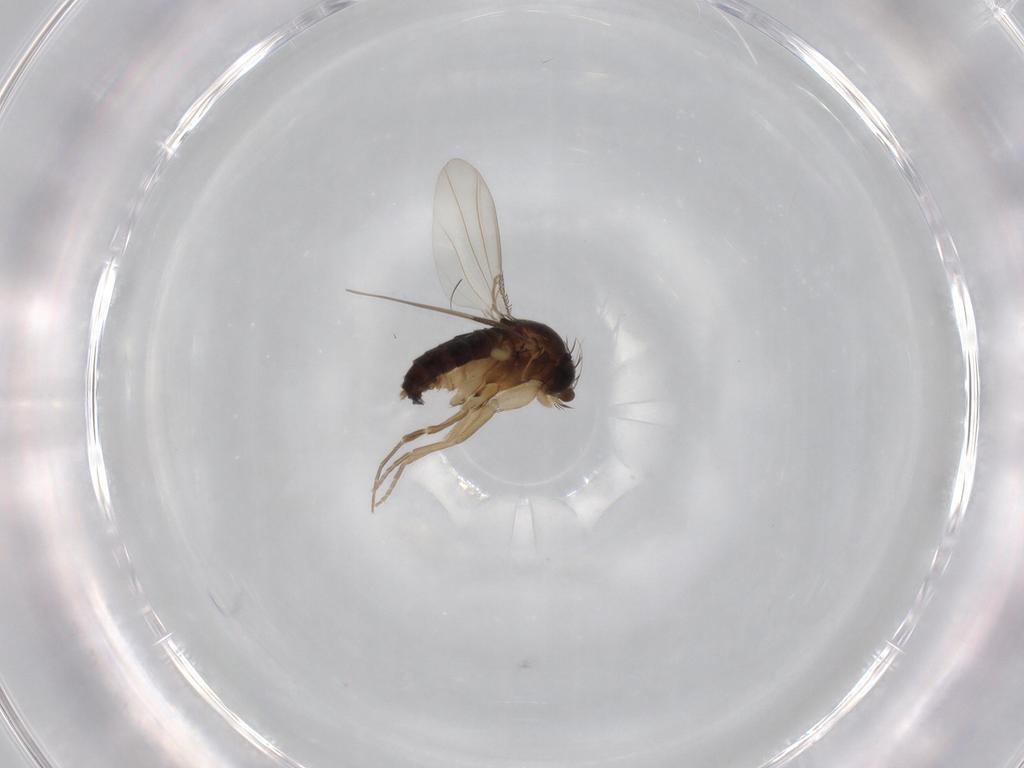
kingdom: Animalia
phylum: Arthropoda
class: Insecta
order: Diptera
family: Phoridae
